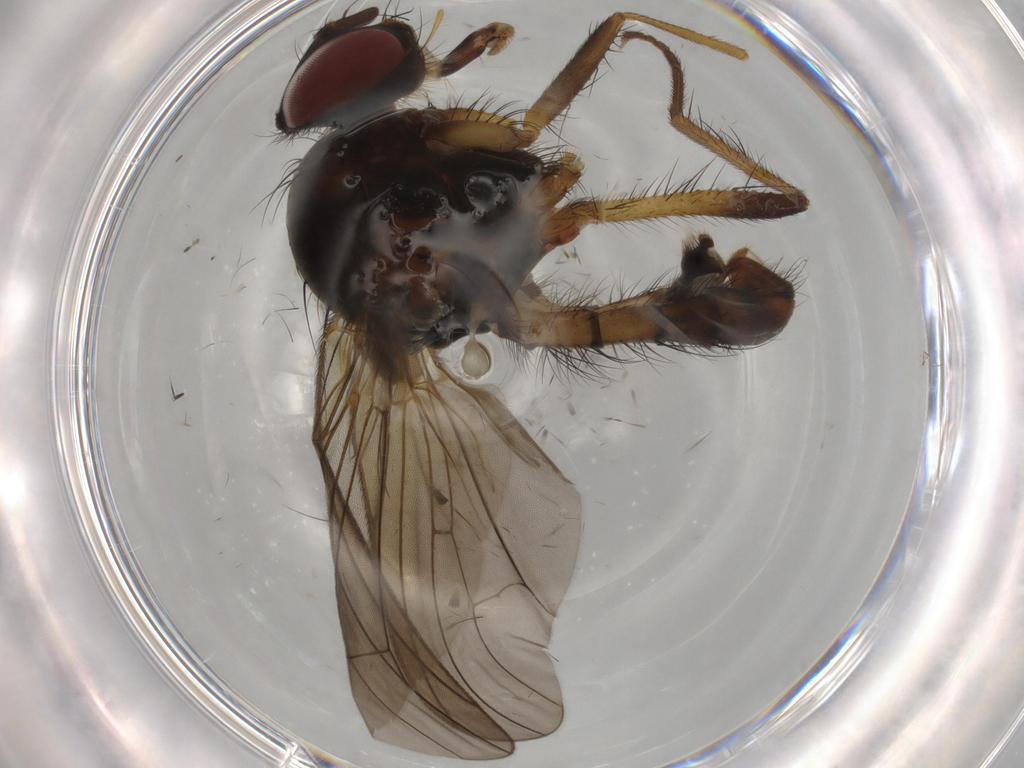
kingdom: Animalia
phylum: Arthropoda
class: Insecta
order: Diptera
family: Anthomyiidae
